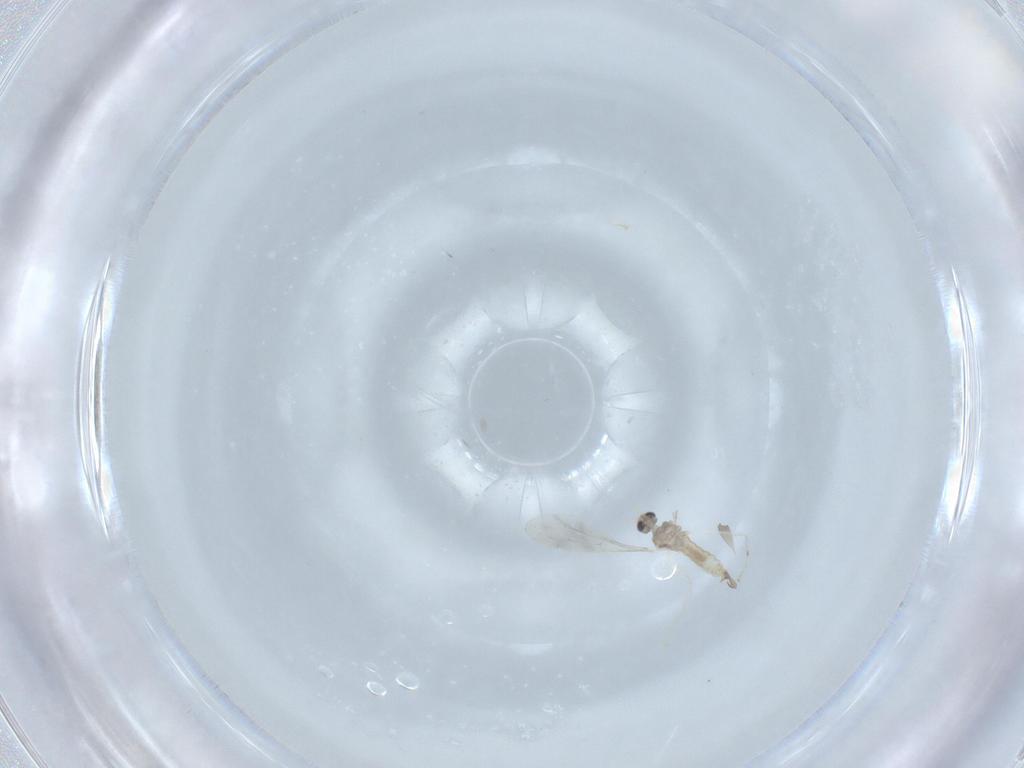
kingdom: Animalia
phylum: Arthropoda
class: Insecta
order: Diptera
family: Cecidomyiidae
